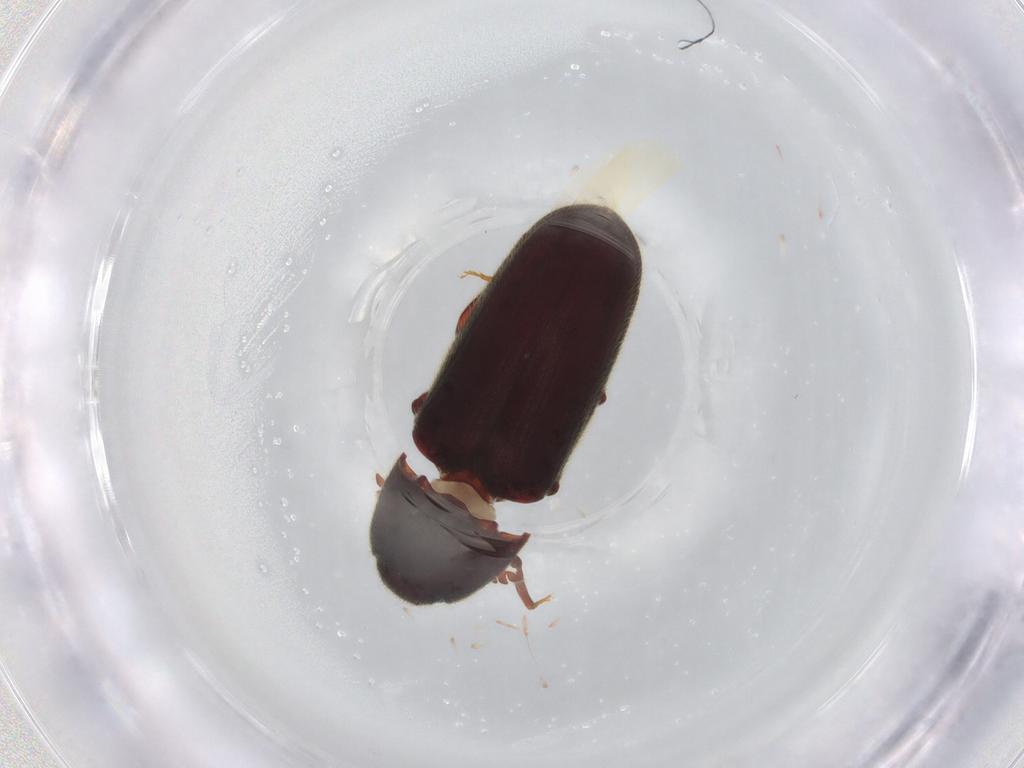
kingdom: Animalia
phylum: Arthropoda
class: Insecta
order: Coleoptera
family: Throscidae
